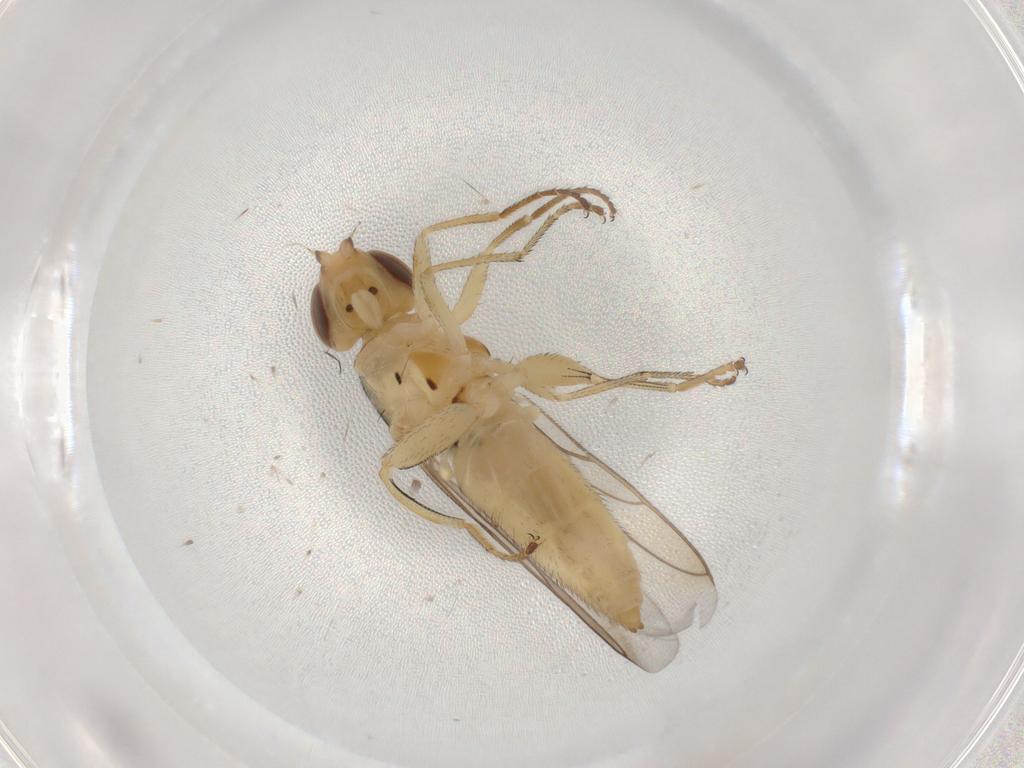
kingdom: Animalia
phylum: Arthropoda
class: Insecta
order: Diptera
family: Chloropidae
